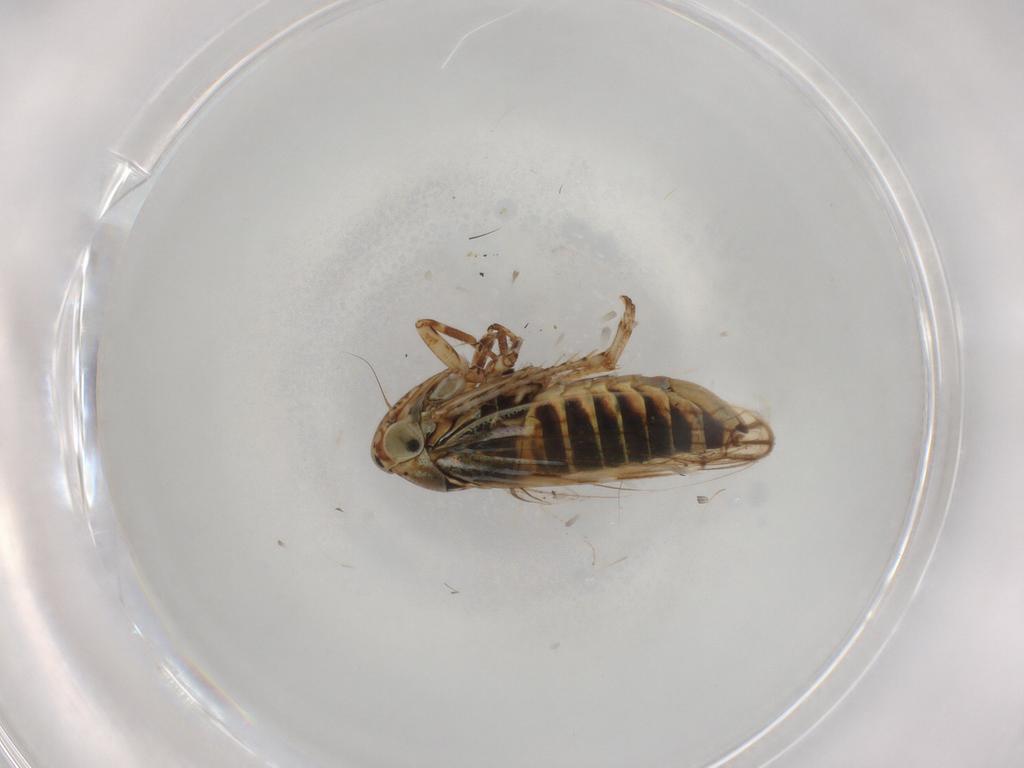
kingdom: Animalia
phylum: Arthropoda
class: Insecta
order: Hemiptera
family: Cicadellidae
